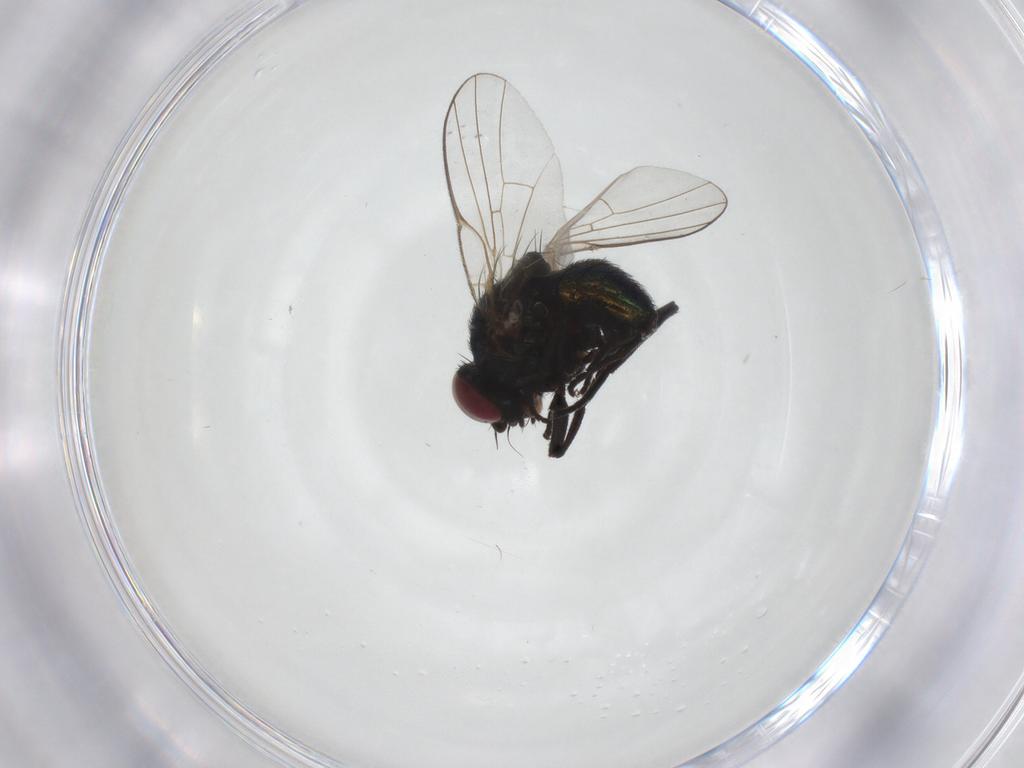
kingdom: Animalia
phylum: Arthropoda
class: Insecta
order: Diptera
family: Agromyzidae
